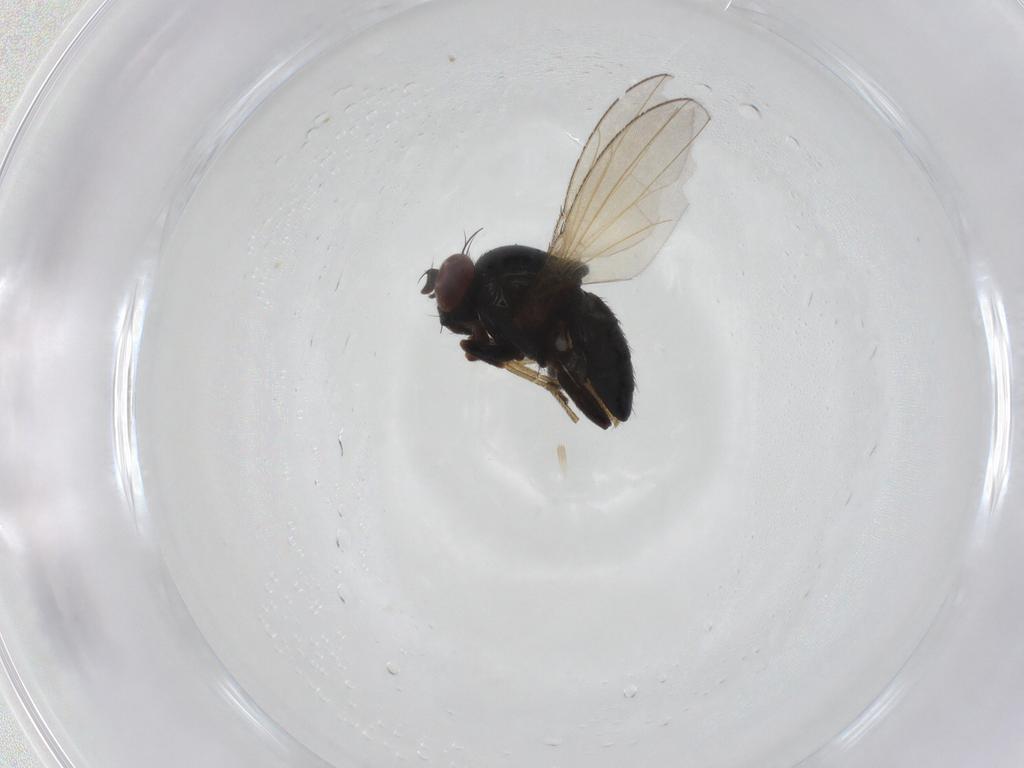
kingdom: Animalia
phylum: Arthropoda
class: Insecta
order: Diptera
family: Ephydridae
